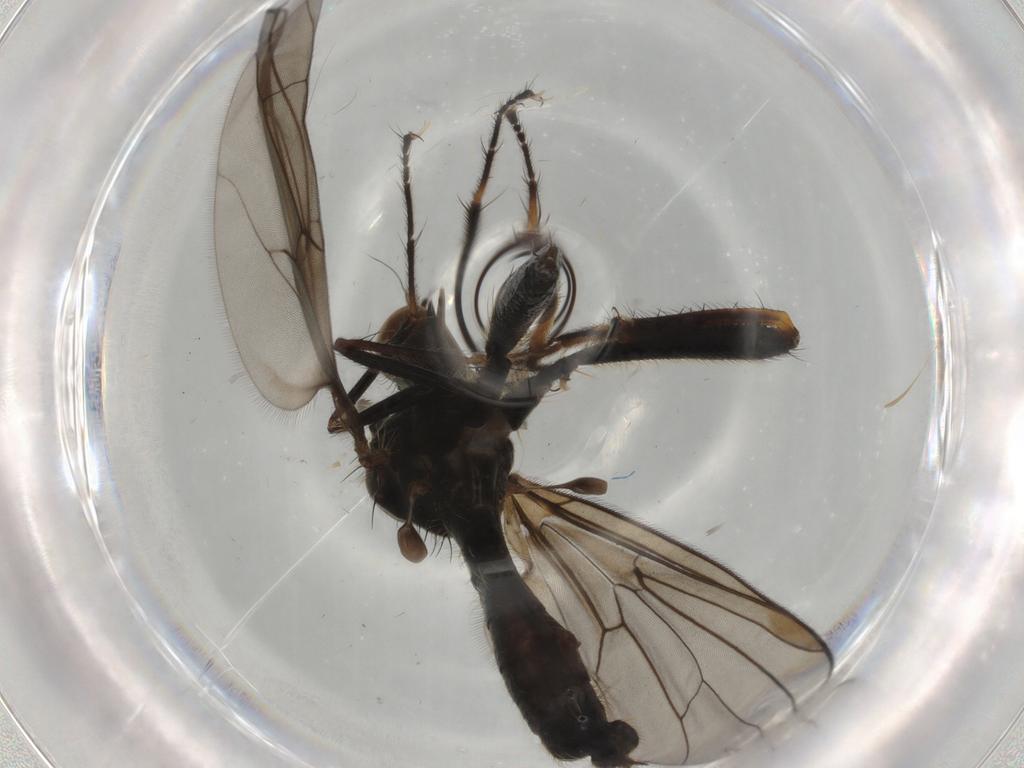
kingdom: Animalia
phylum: Arthropoda
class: Insecta
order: Diptera
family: Hybotidae
